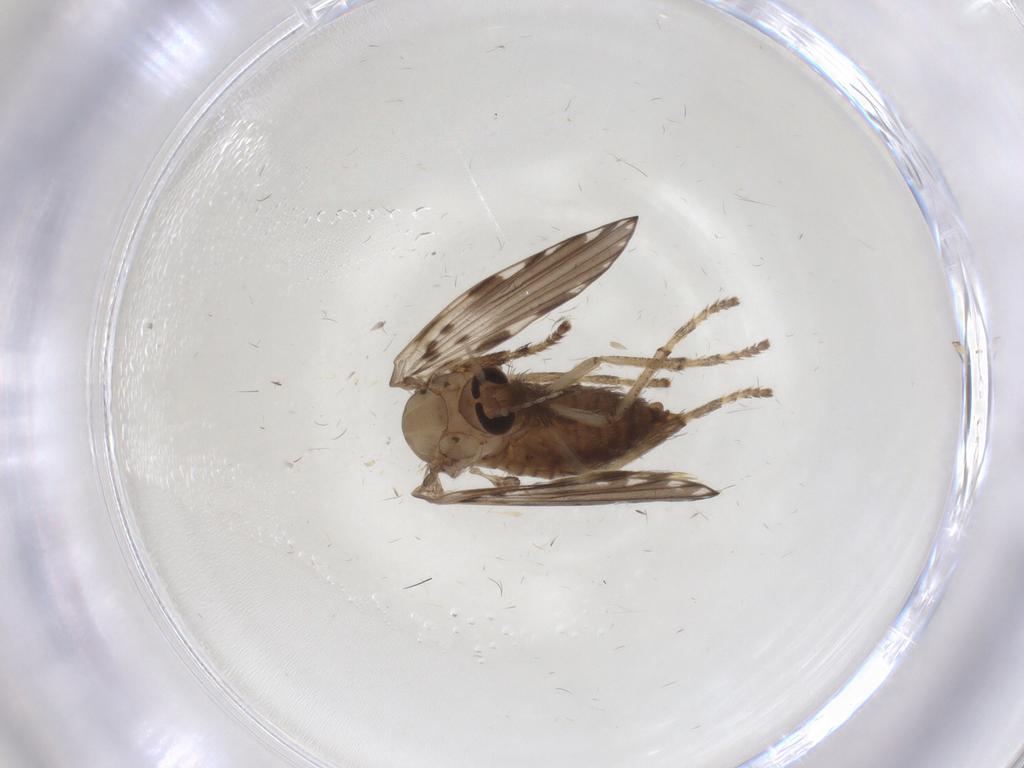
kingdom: Animalia
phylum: Arthropoda
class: Insecta
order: Diptera
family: Psychodidae
